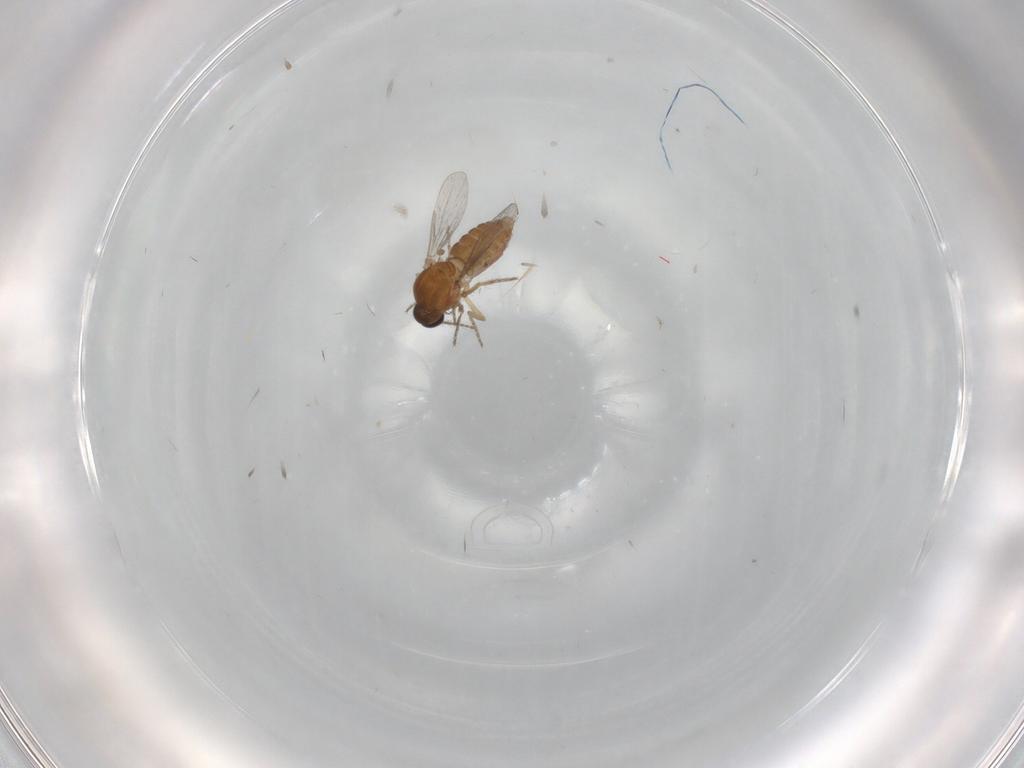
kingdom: Animalia
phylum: Arthropoda
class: Insecta
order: Diptera
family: Ceratopogonidae
